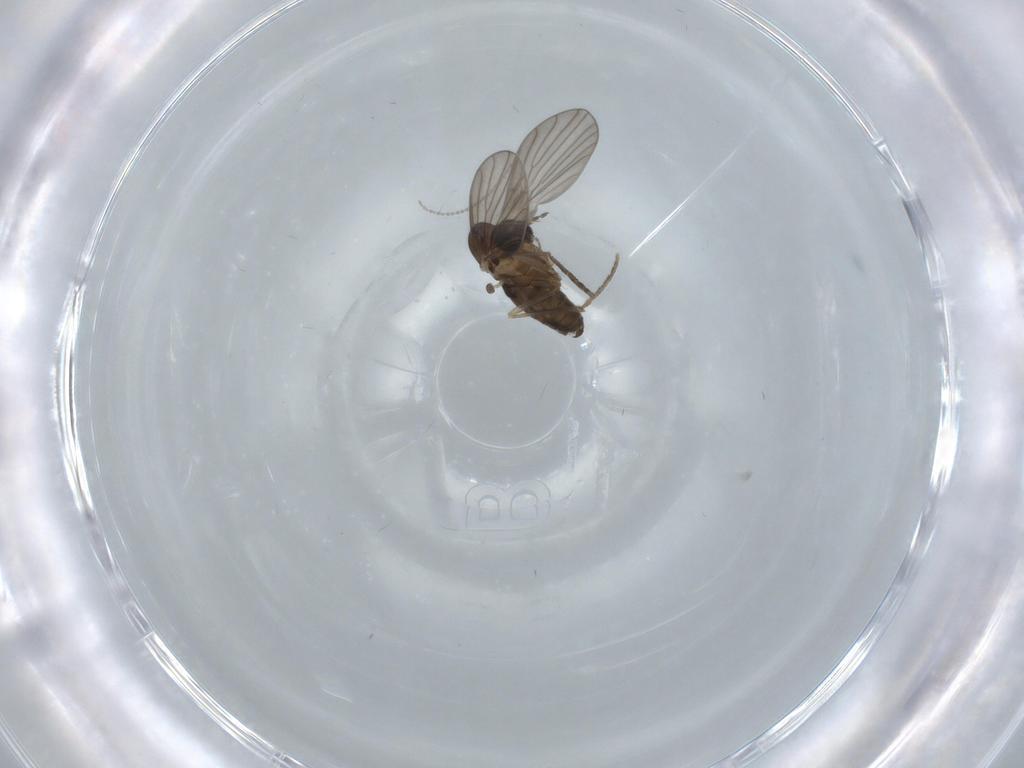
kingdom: Animalia
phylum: Arthropoda
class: Insecta
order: Diptera
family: Psychodidae
